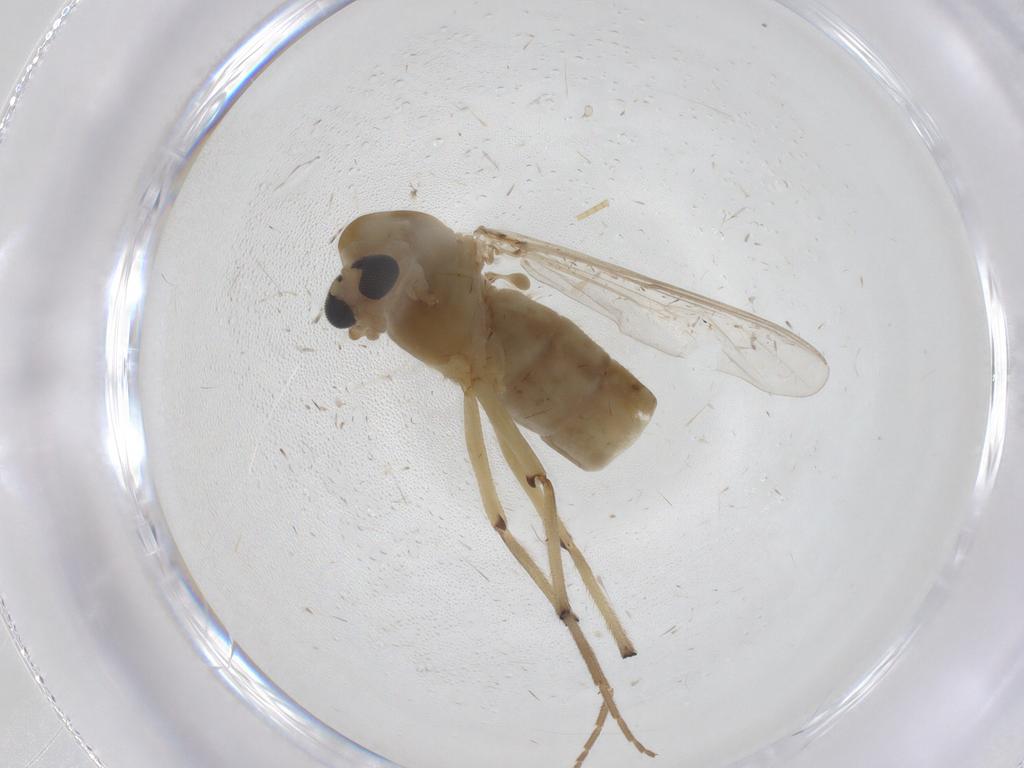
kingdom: Animalia
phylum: Arthropoda
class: Insecta
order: Diptera
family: Chironomidae
